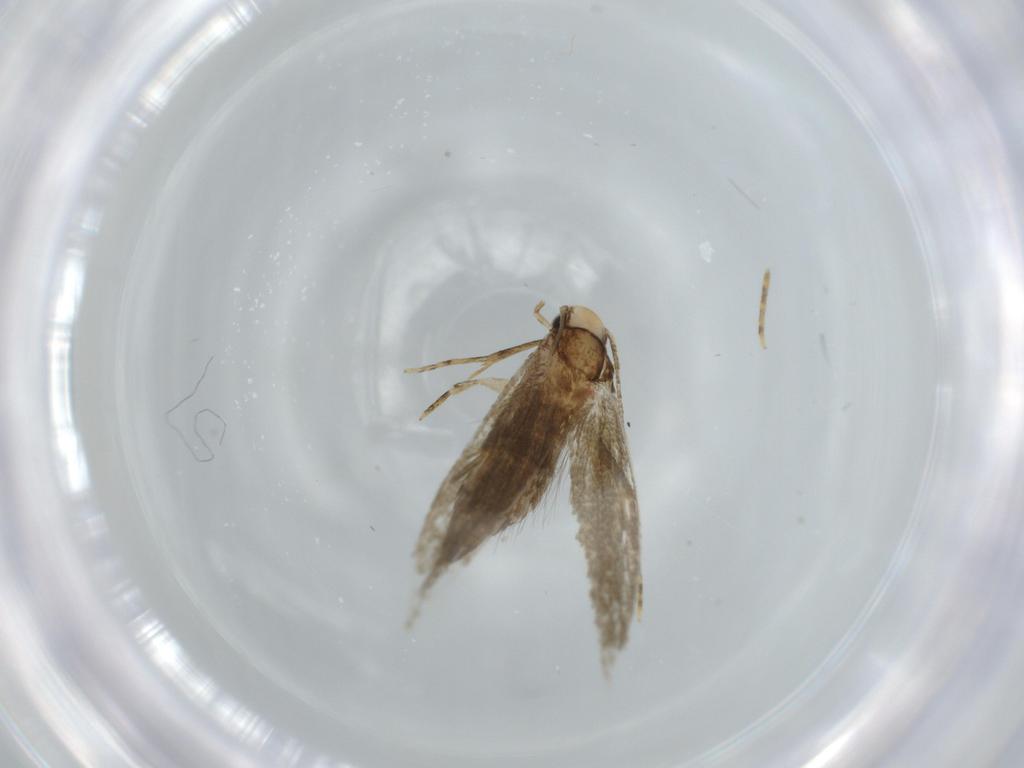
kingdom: Animalia
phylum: Arthropoda
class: Insecta
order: Lepidoptera
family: Tineidae
